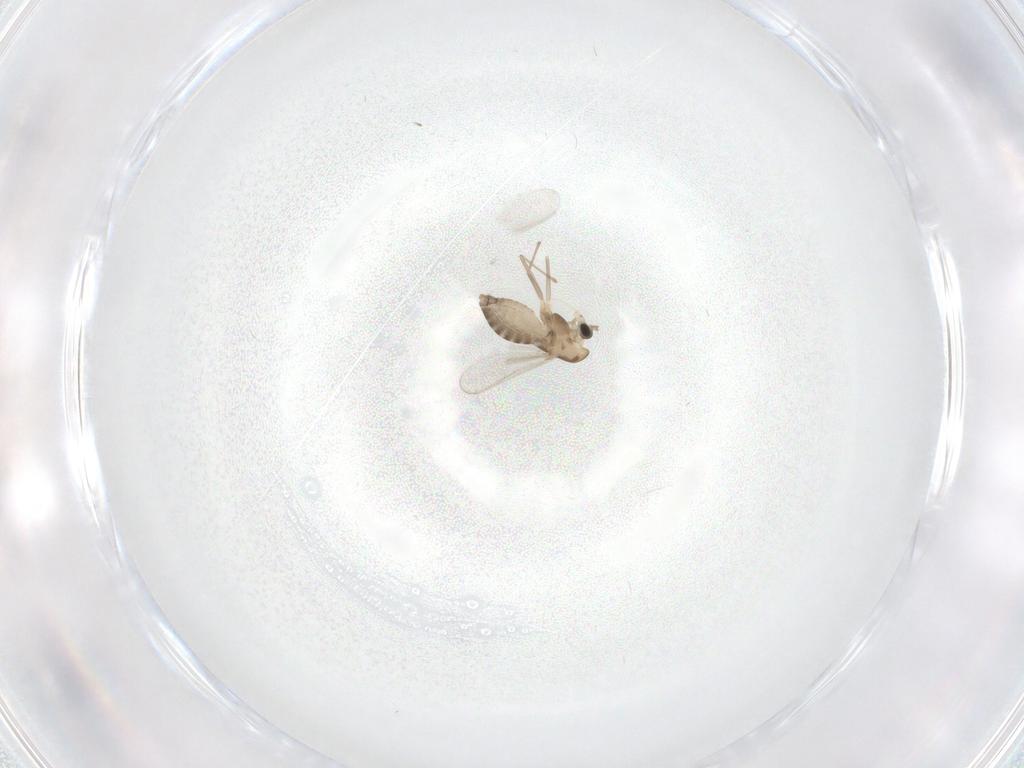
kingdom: Animalia
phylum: Arthropoda
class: Insecta
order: Diptera
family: Chironomidae
